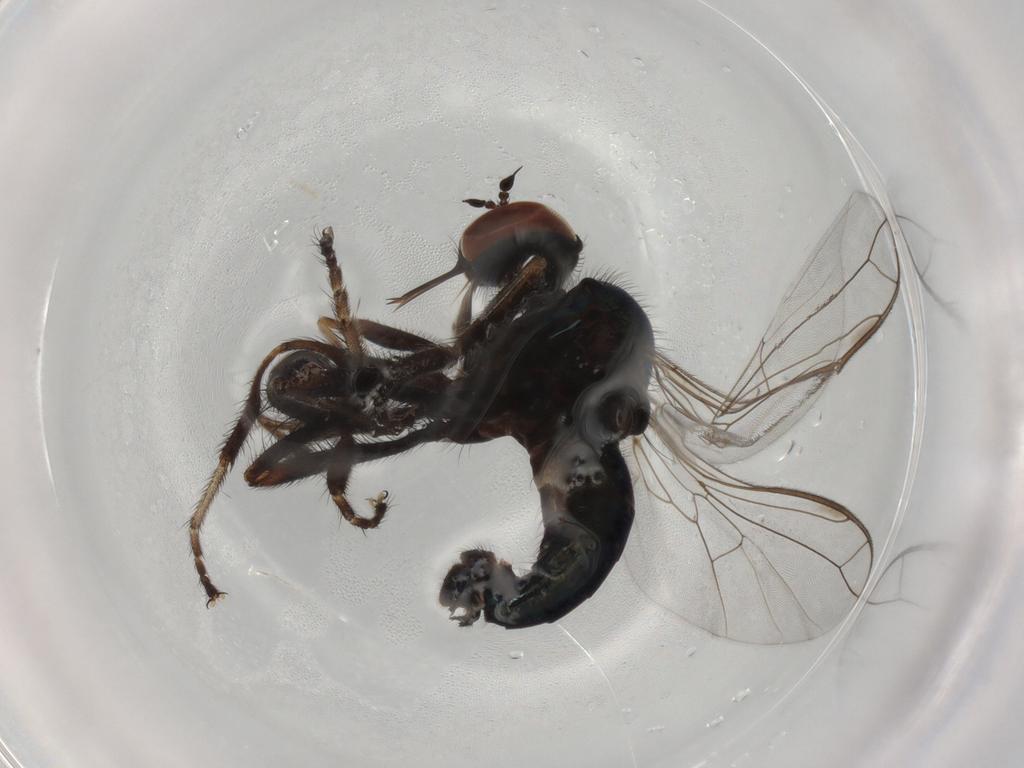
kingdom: Animalia
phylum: Arthropoda
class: Insecta
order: Diptera
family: Empididae
